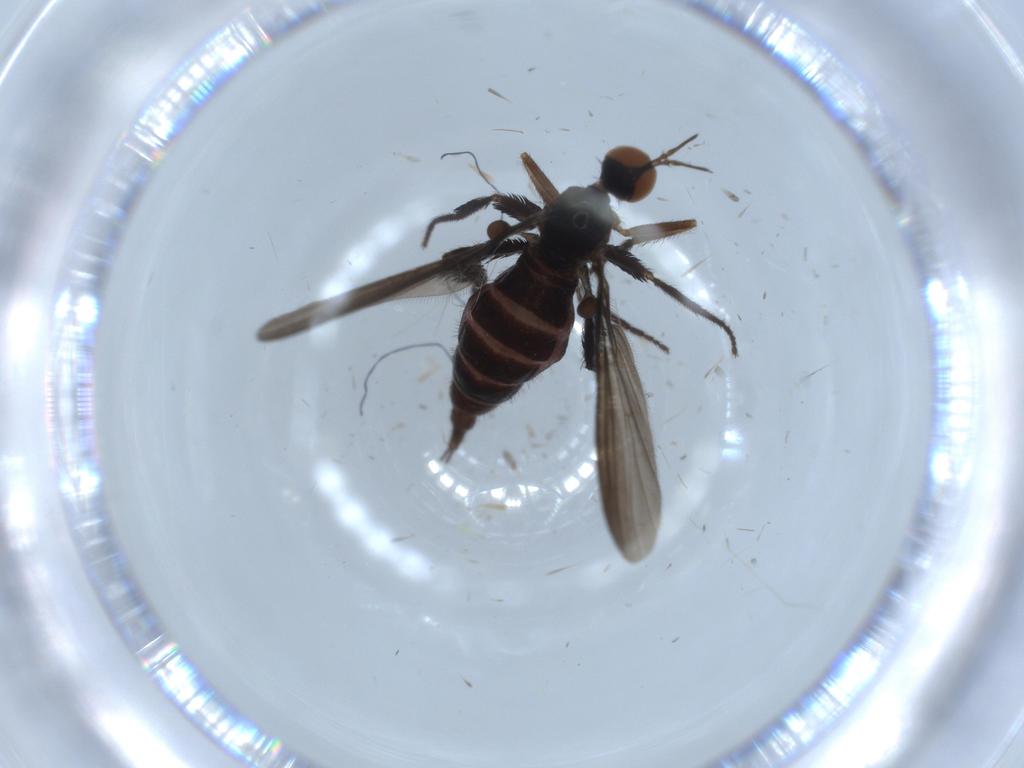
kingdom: Animalia
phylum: Arthropoda
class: Insecta
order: Diptera
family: Empididae
